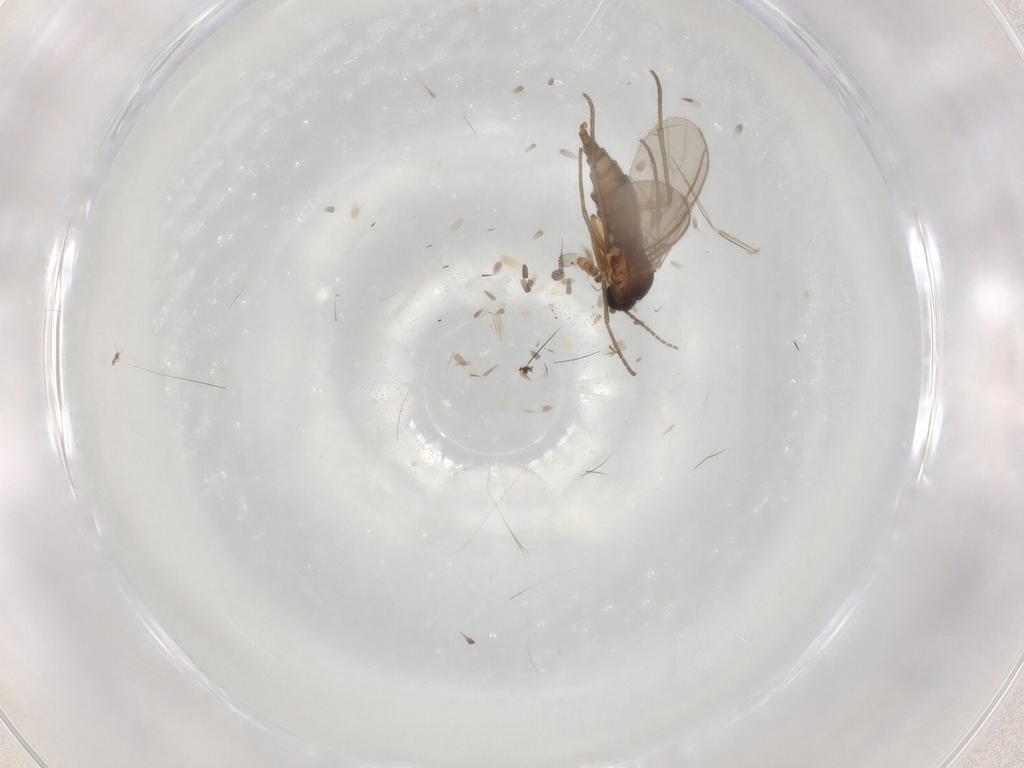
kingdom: Animalia
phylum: Arthropoda
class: Insecta
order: Diptera
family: Sciaridae
